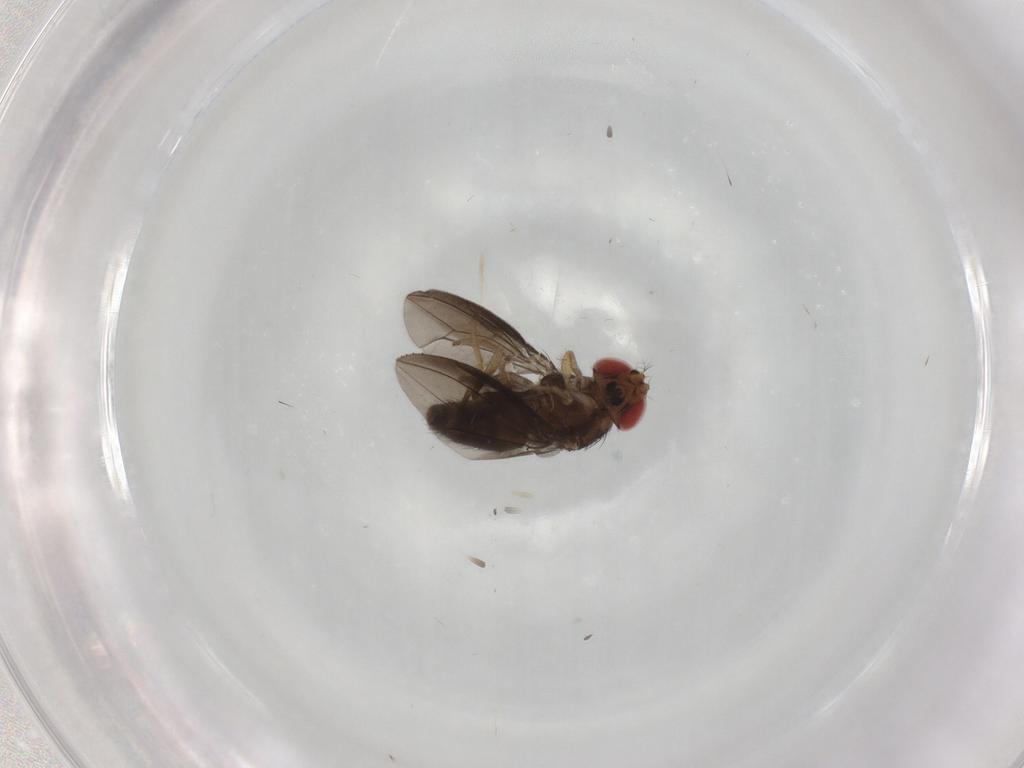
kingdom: Animalia
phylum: Arthropoda
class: Insecta
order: Diptera
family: Drosophilidae
